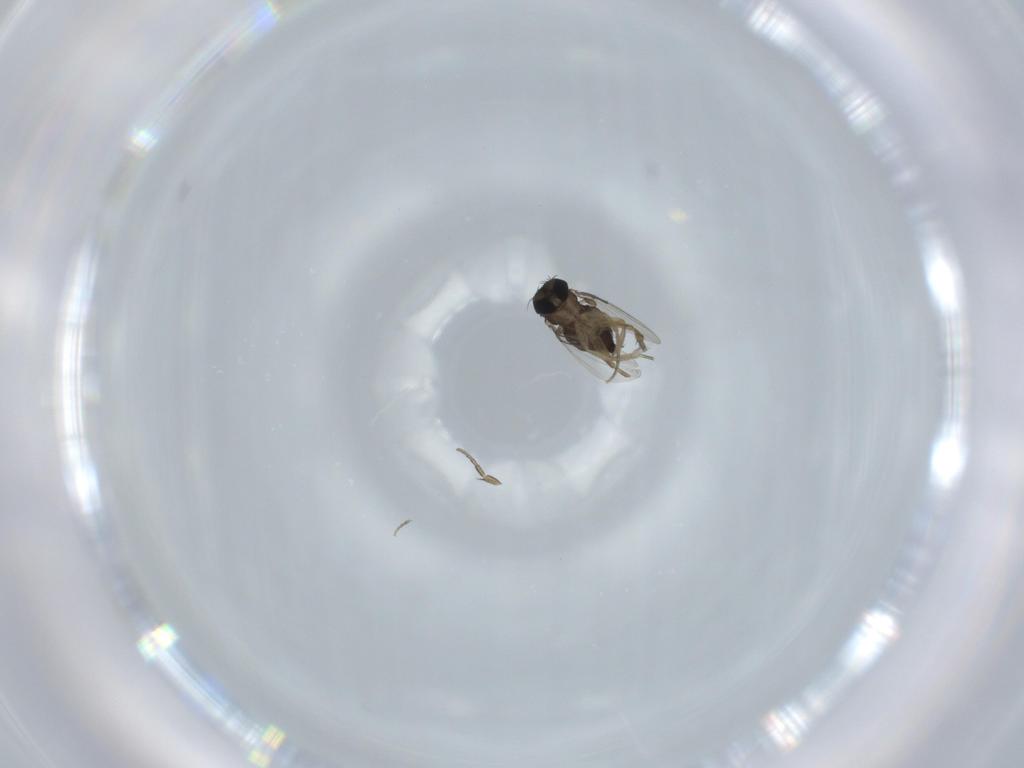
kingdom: Animalia
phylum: Arthropoda
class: Insecta
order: Diptera
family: Phoridae
